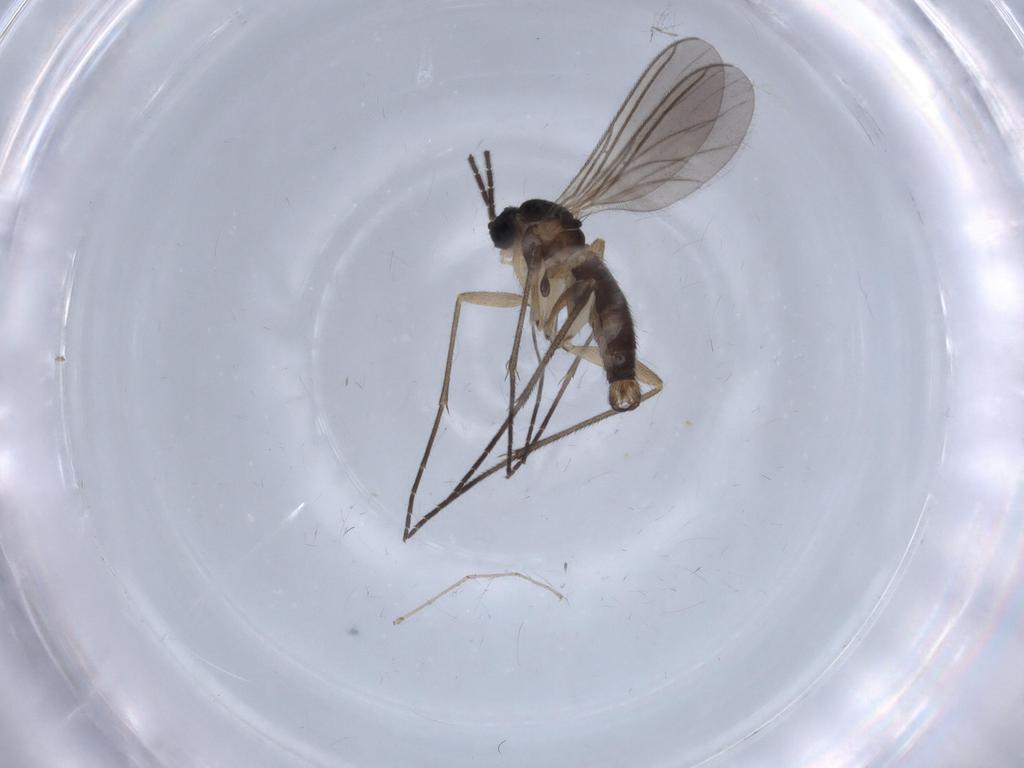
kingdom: Animalia
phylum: Arthropoda
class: Insecta
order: Diptera
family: Sciaridae
